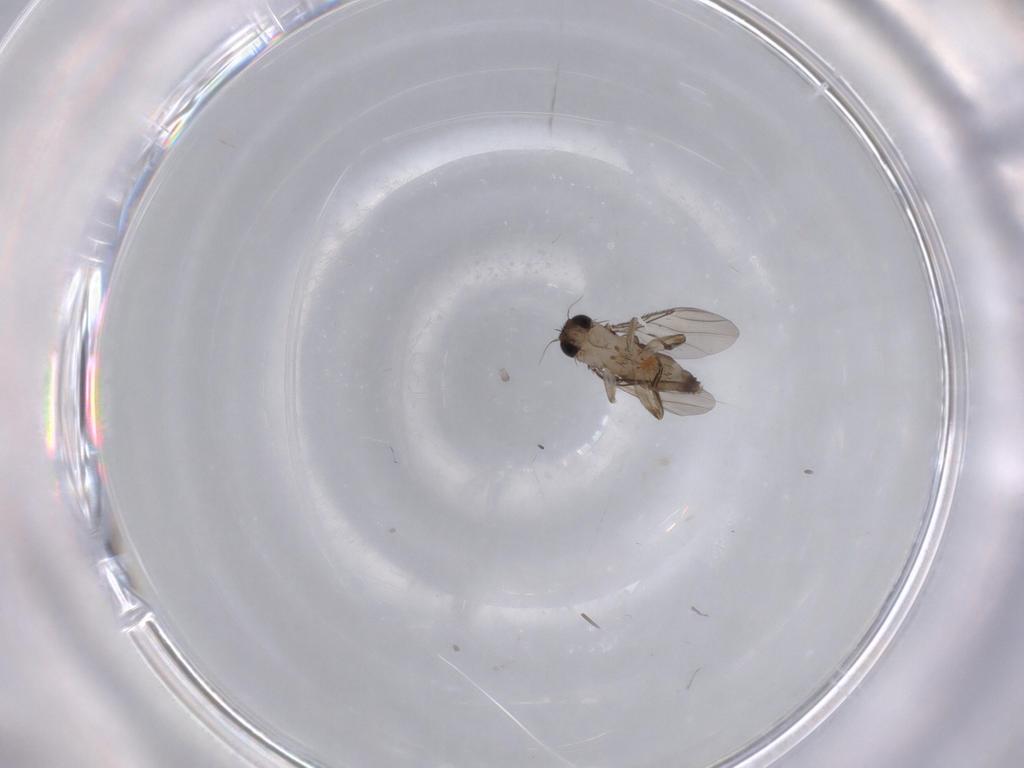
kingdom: Animalia
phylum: Arthropoda
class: Insecta
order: Diptera
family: Phoridae
